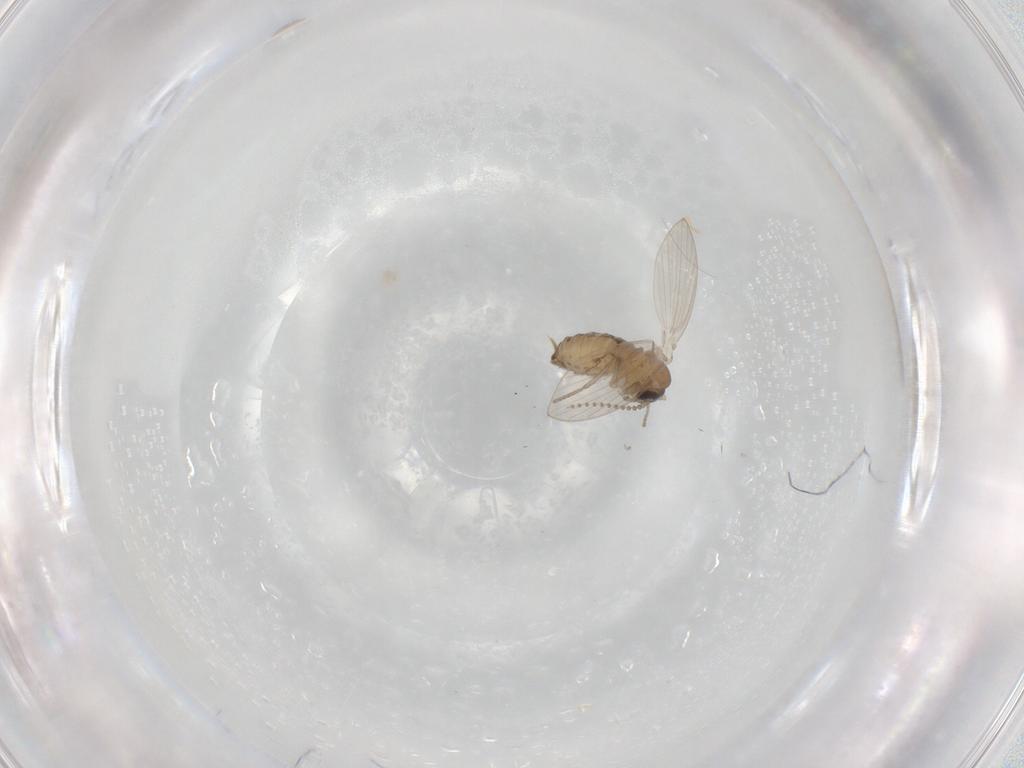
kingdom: Animalia
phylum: Arthropoda
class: Insecta
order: Diptera
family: Psychodidae
